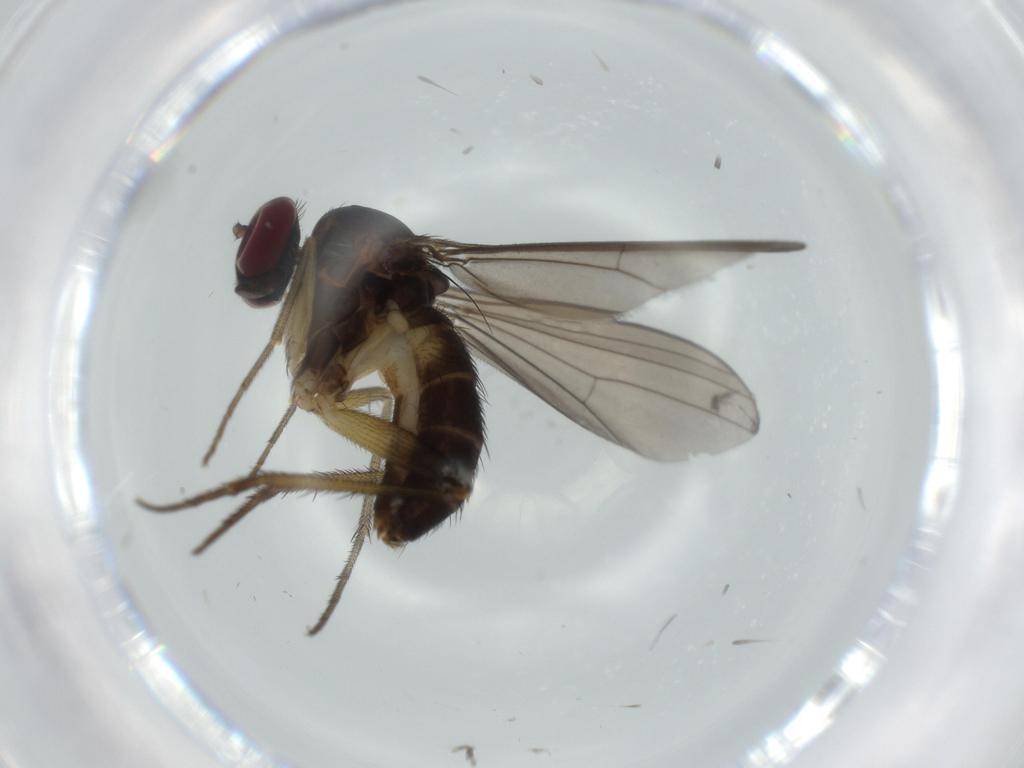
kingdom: Animalia
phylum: Arthropoda
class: Insecta
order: Diptera
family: Dolichopodidae
